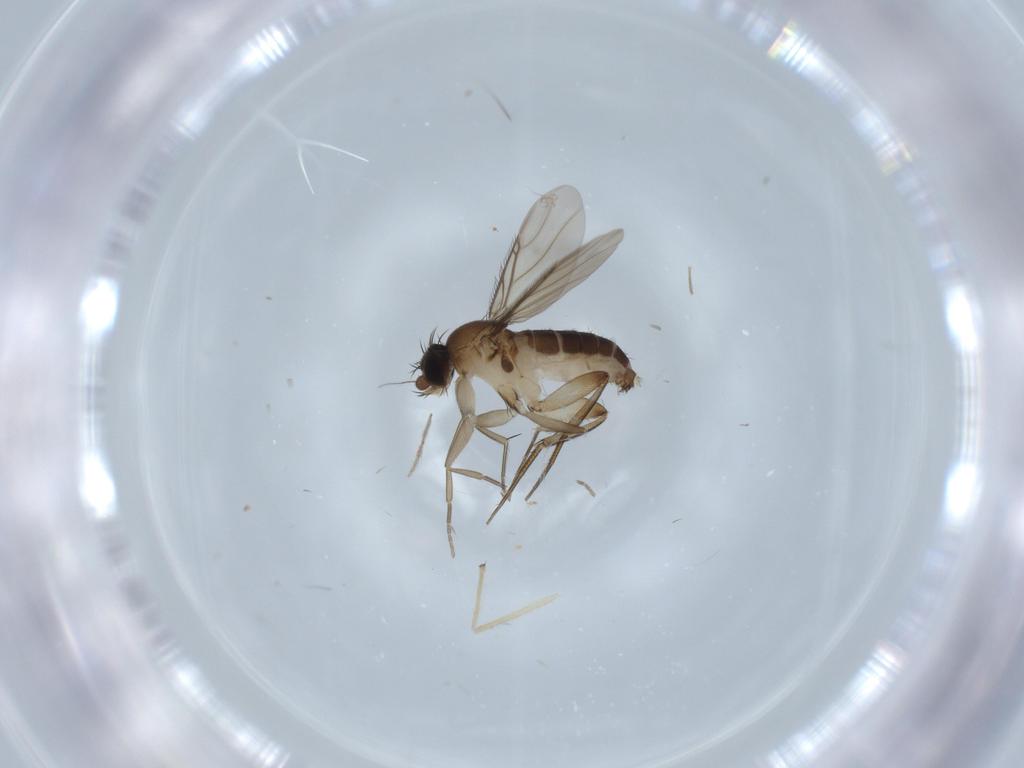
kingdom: Animalia
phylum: Arthropoda
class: Insecta
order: Diptera
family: Phoridae
